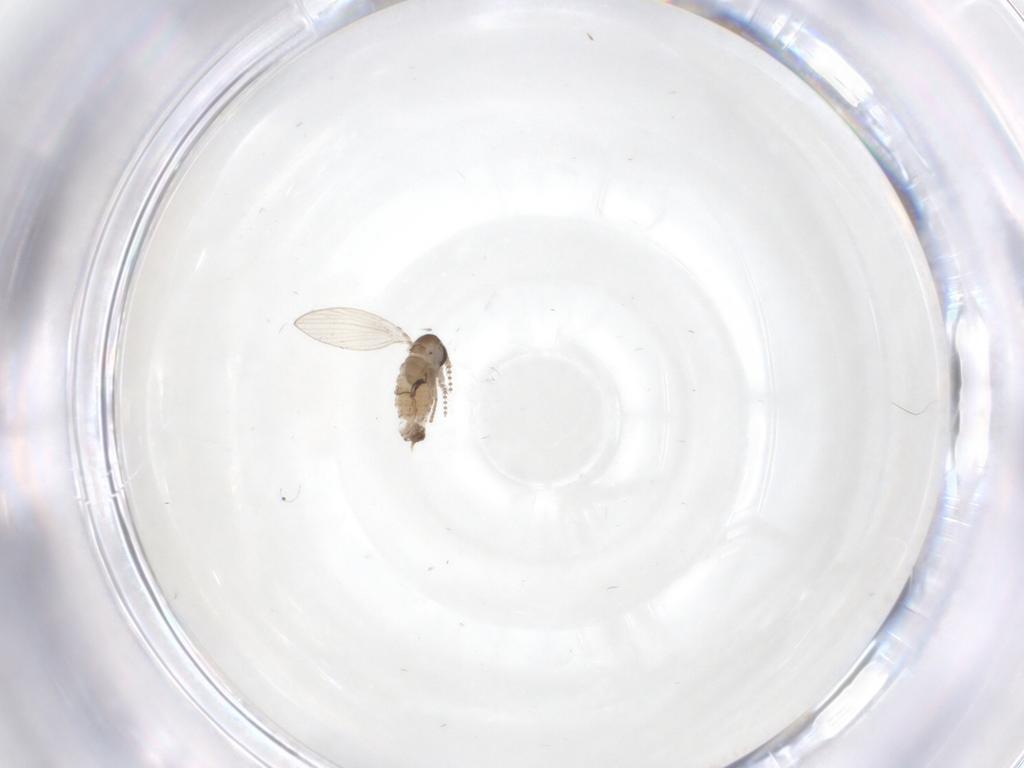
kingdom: Animalia
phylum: Arthropoda
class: Insecta
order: Diptera
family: Psychodidae
